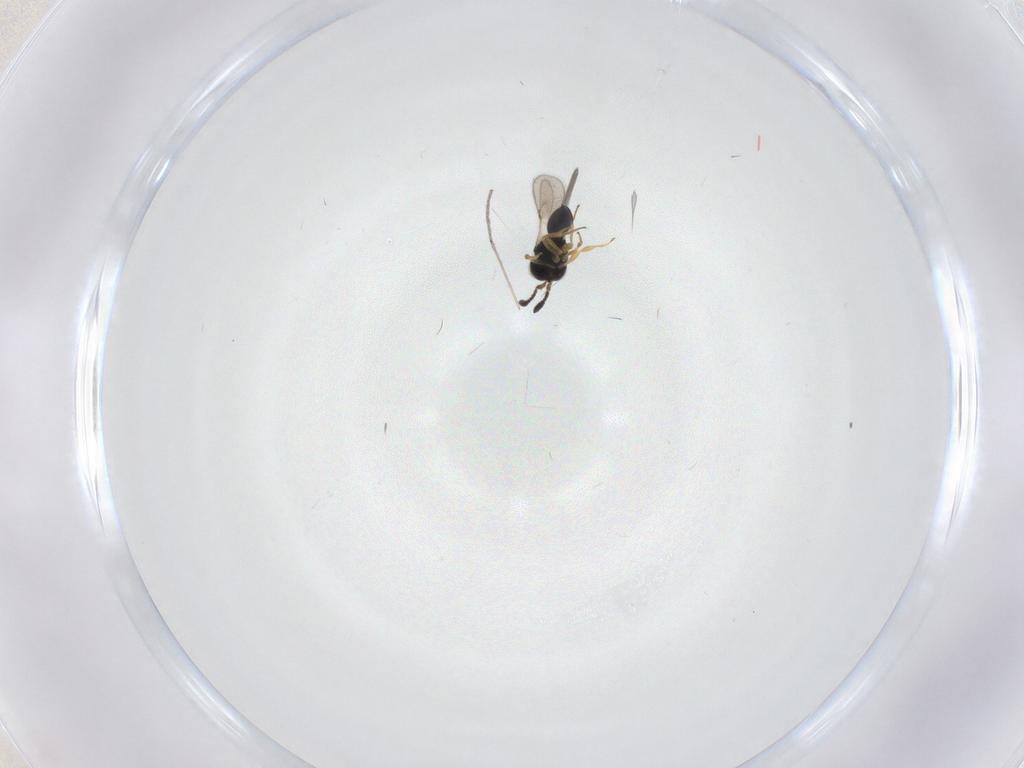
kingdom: Animalia
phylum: Arthropoda
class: Insecta
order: Hymenoptera
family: Scelionidae
